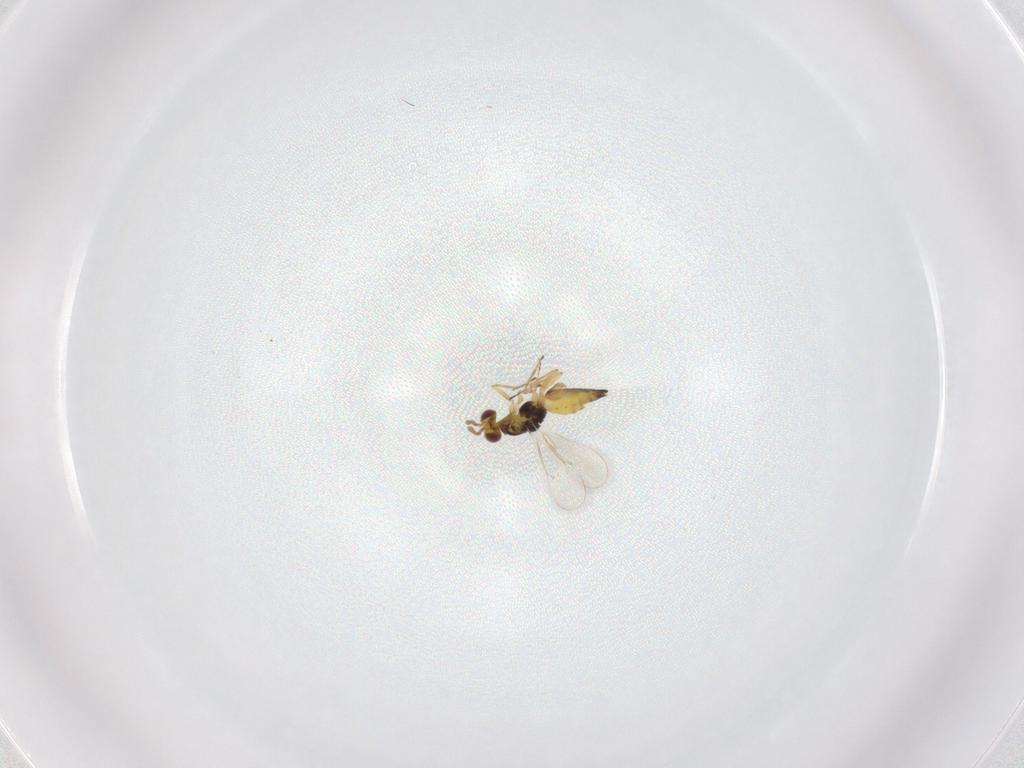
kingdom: Animalia
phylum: Arthropoda
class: Insecta
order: Hymenoptera
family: Eulophidae
